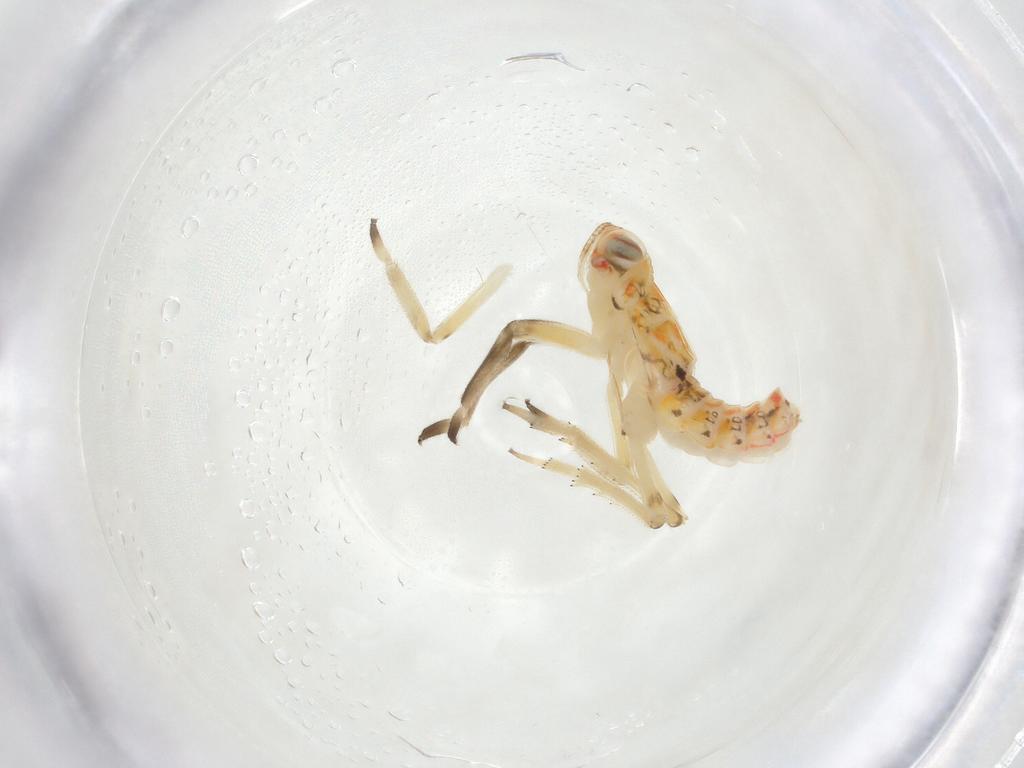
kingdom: Animalia
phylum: Arthropoda
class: Insecta
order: Hemiptera
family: Fulgoroidea_incertae_sedis
